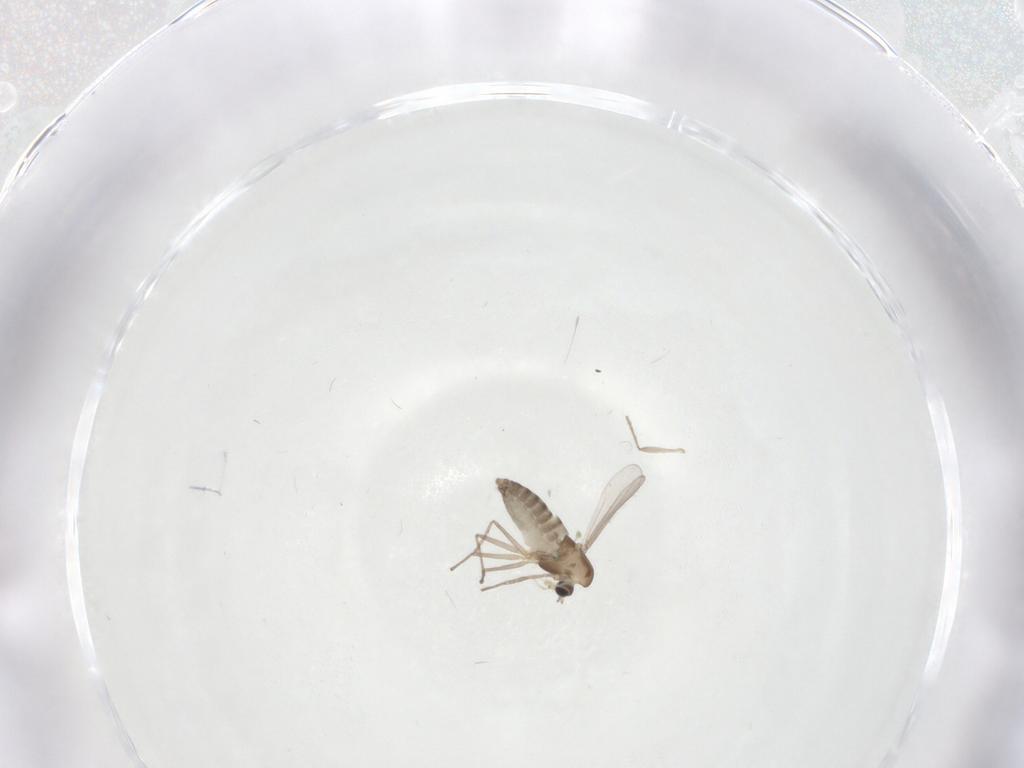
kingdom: Animalia
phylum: Arthropoda
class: Insecta
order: Diptera
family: Chironomidae
